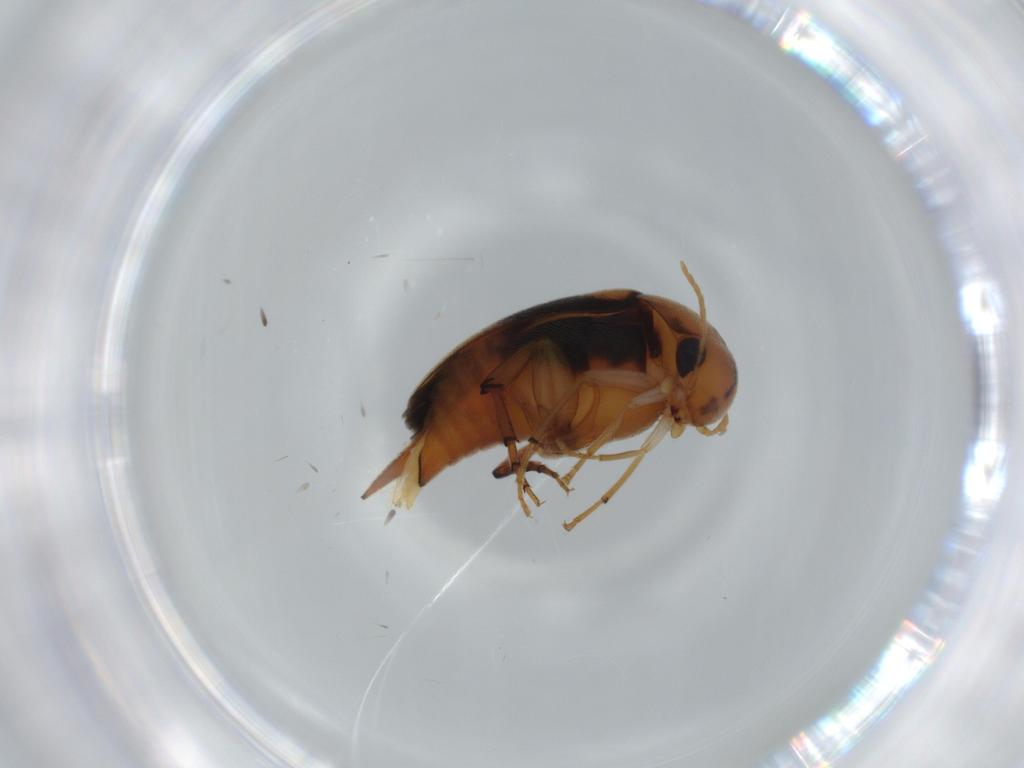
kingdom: Animalia
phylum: Arthropoda
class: Insecta
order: Coleoptera
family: Mordellidae
